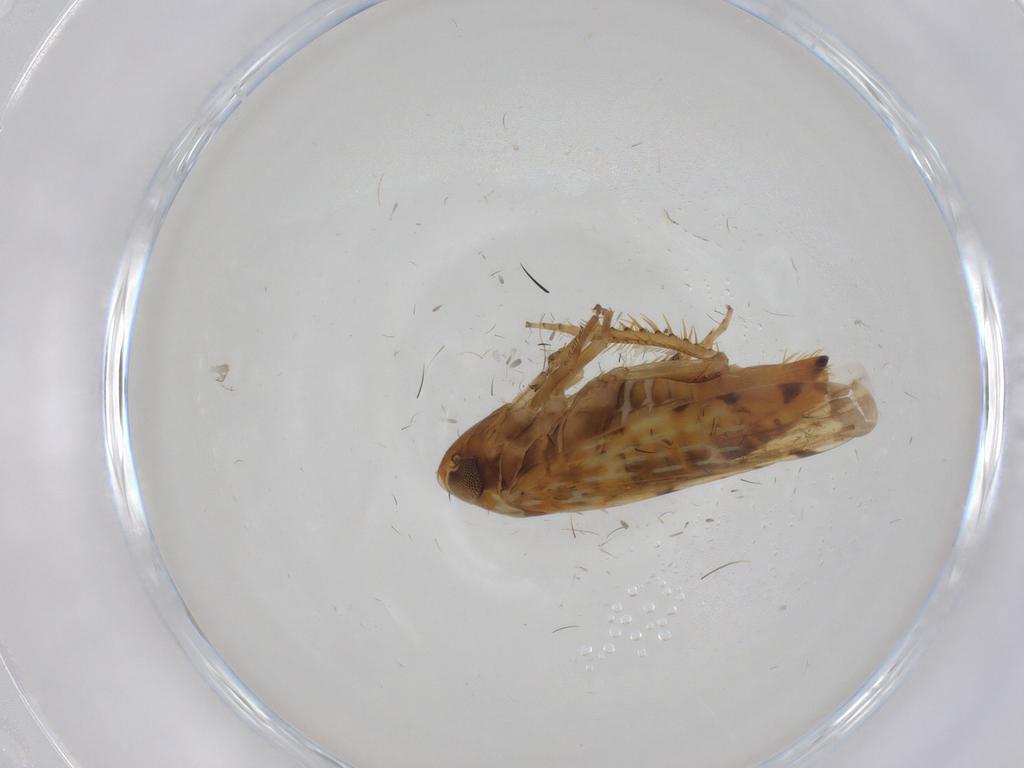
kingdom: Animalia
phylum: Arthropoda
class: Insecta
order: Hemiptera
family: Cicadellidae
